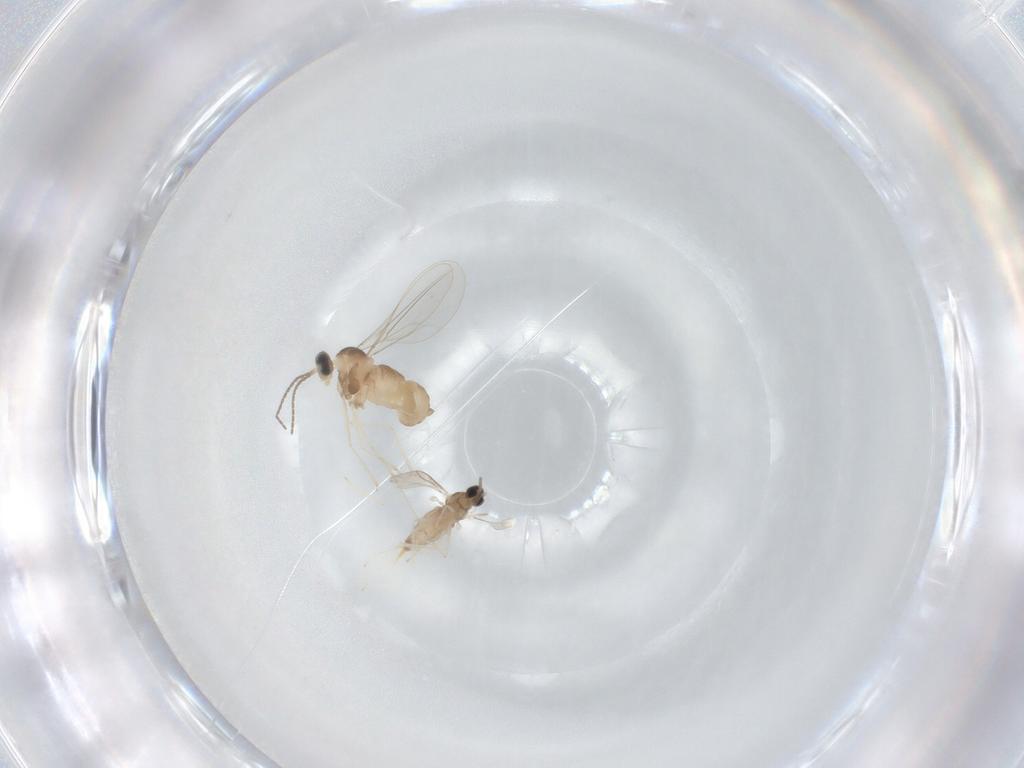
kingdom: Animalia
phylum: Arthropoda
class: Insecta
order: Diptera
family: Cecidomyiidae
